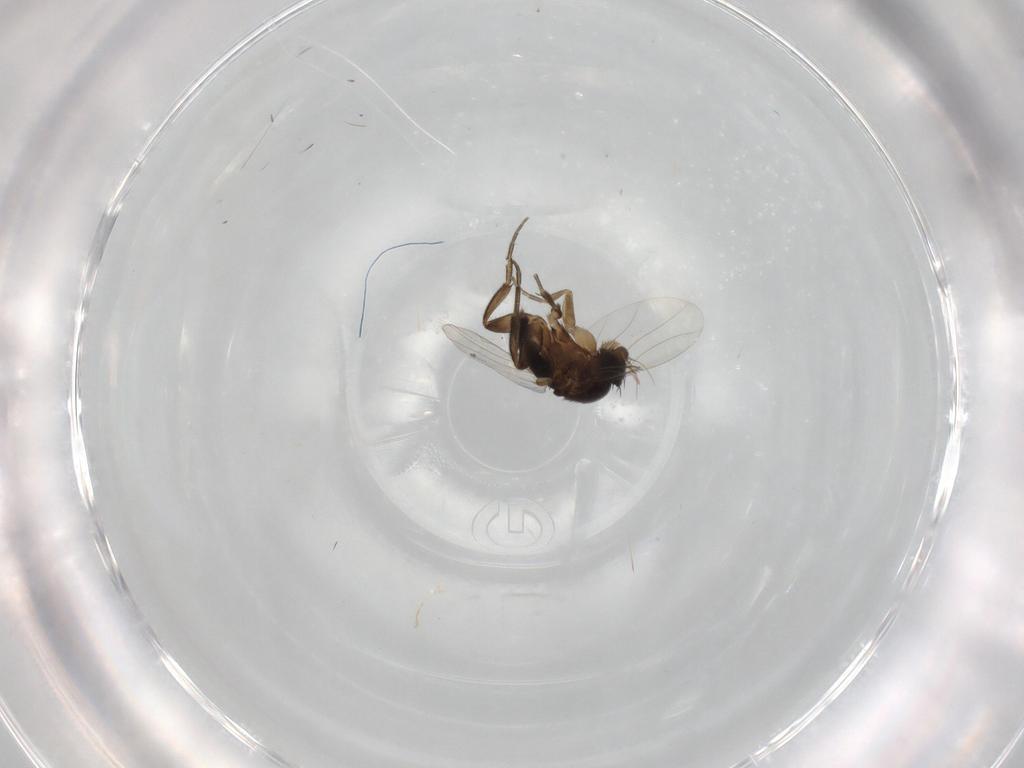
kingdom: Animalia
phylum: Arthropoda
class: Insecta
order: Diptera
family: Phoridae
